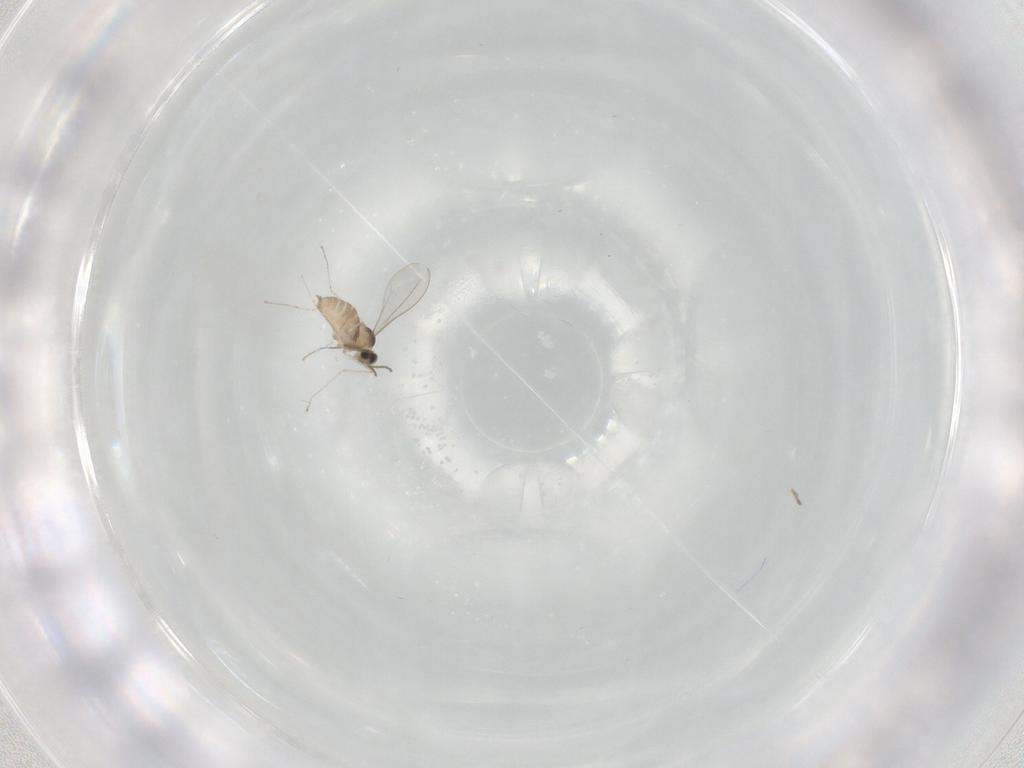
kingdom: Animalia
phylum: Arthropoda
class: Insecta
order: Diptera
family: Cecidomyiidae
